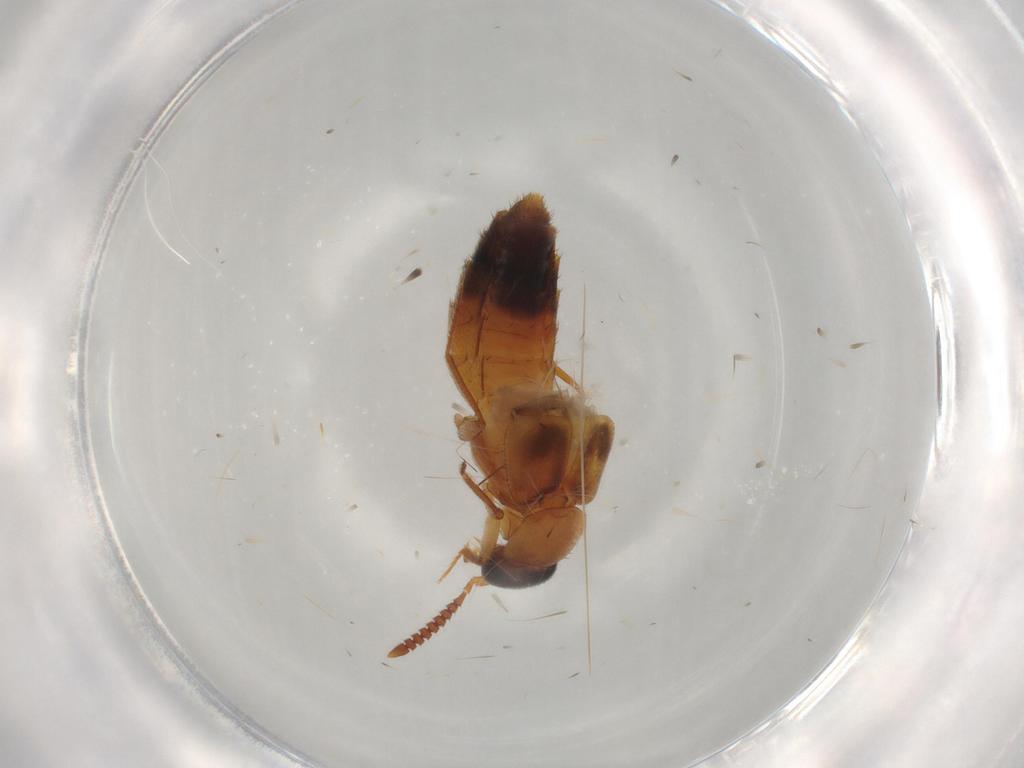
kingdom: Animalia
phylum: Arthropoda
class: Insecta
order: Coleoptera
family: Staphylinidae
